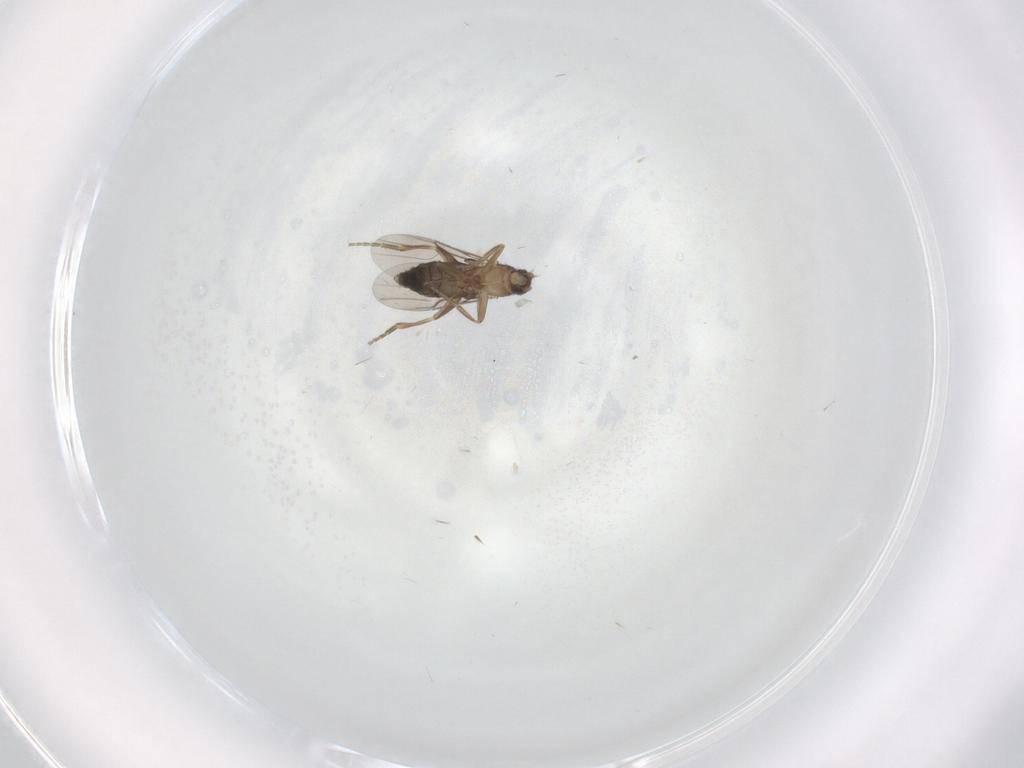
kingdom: Animalia
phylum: Arthropoda
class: Insecta
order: Diptera
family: Phoridae
